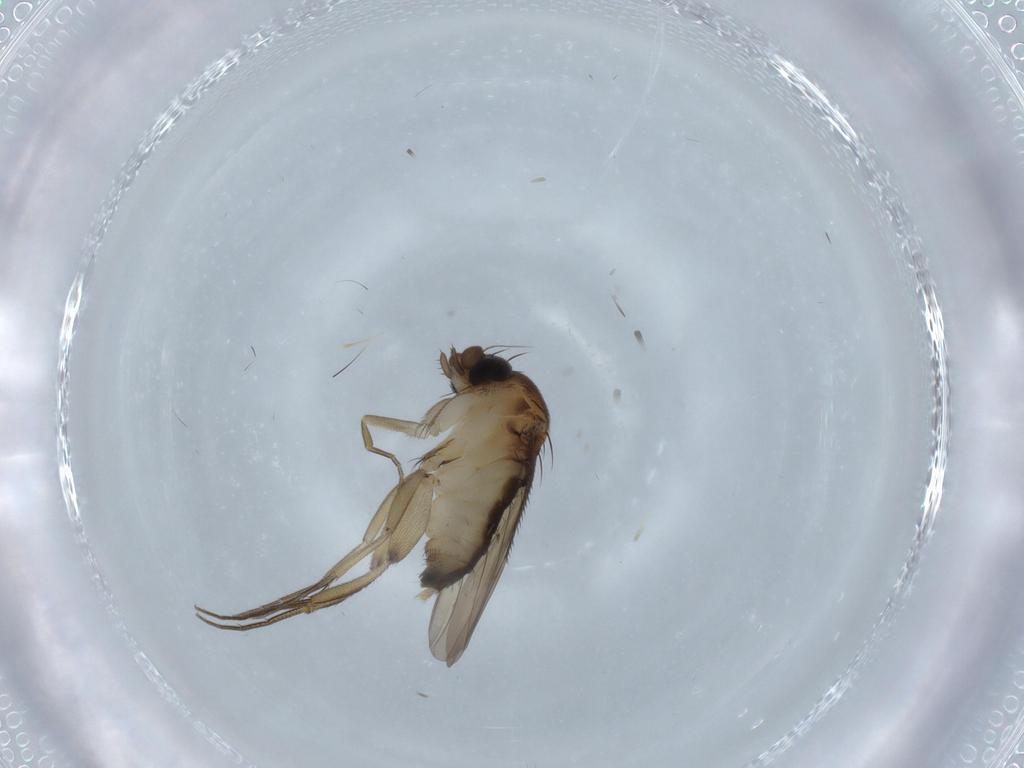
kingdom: Animalia
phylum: Arthropoda
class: Insecta
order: Diptera
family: Phoridae
